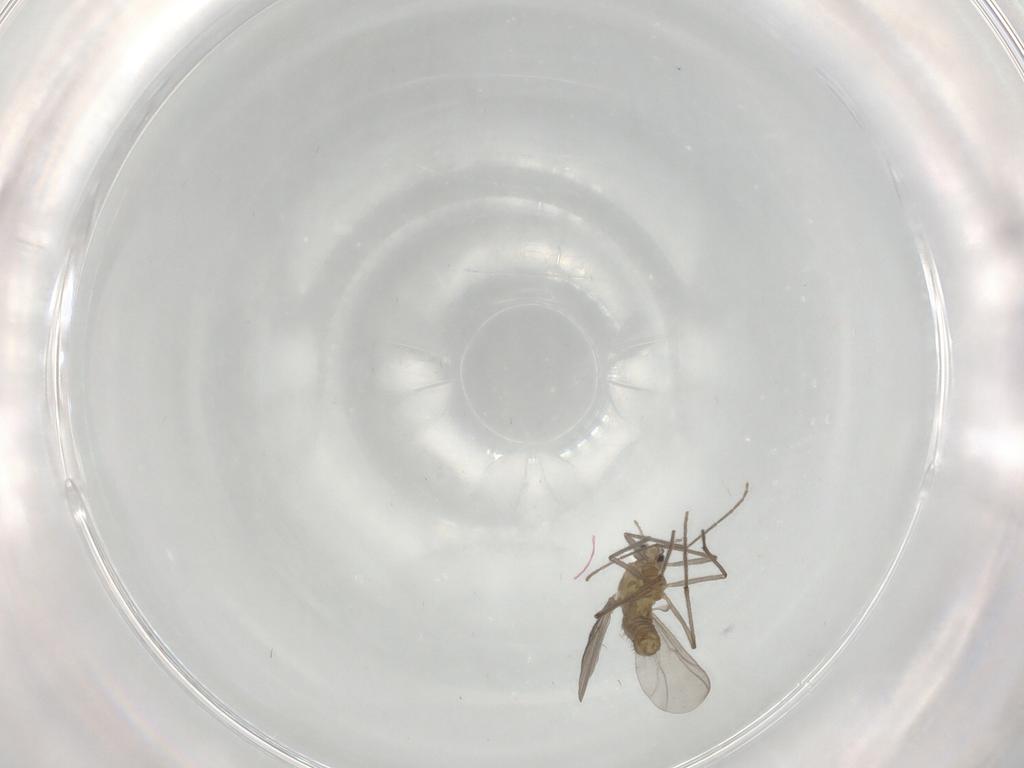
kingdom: Animalia
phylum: Arthropoda
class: Insecta
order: Diptera
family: Chironomidae
